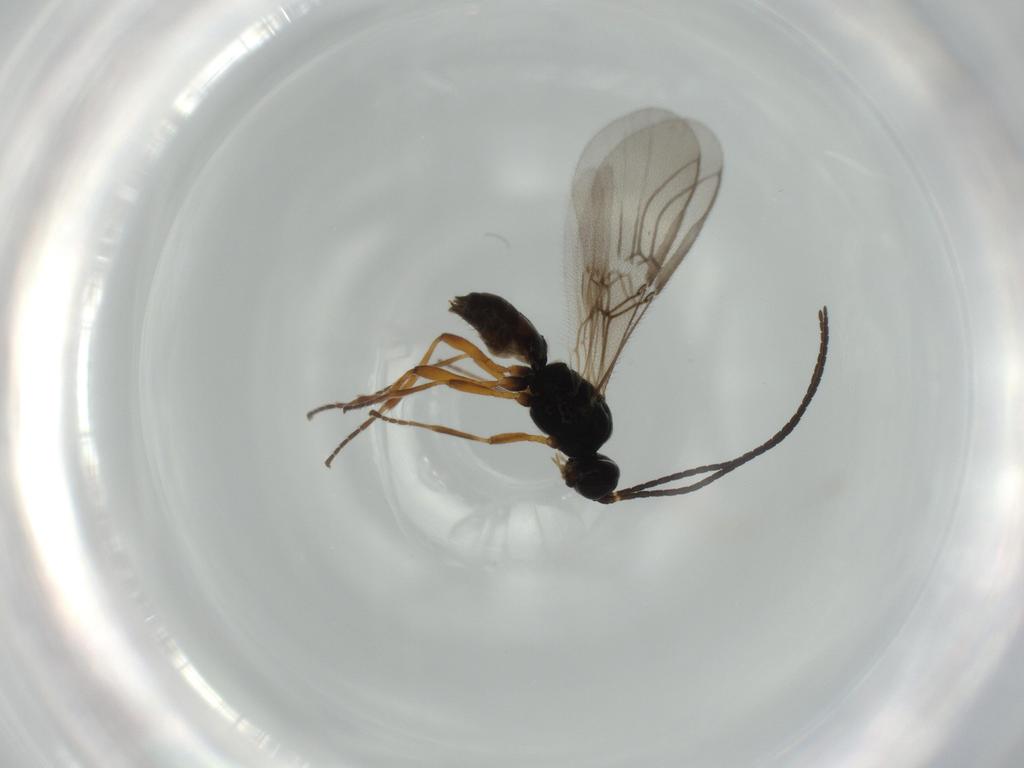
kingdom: Animalia
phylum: Arthropoda
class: Insecta
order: Hymenoptera
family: Braconidae
